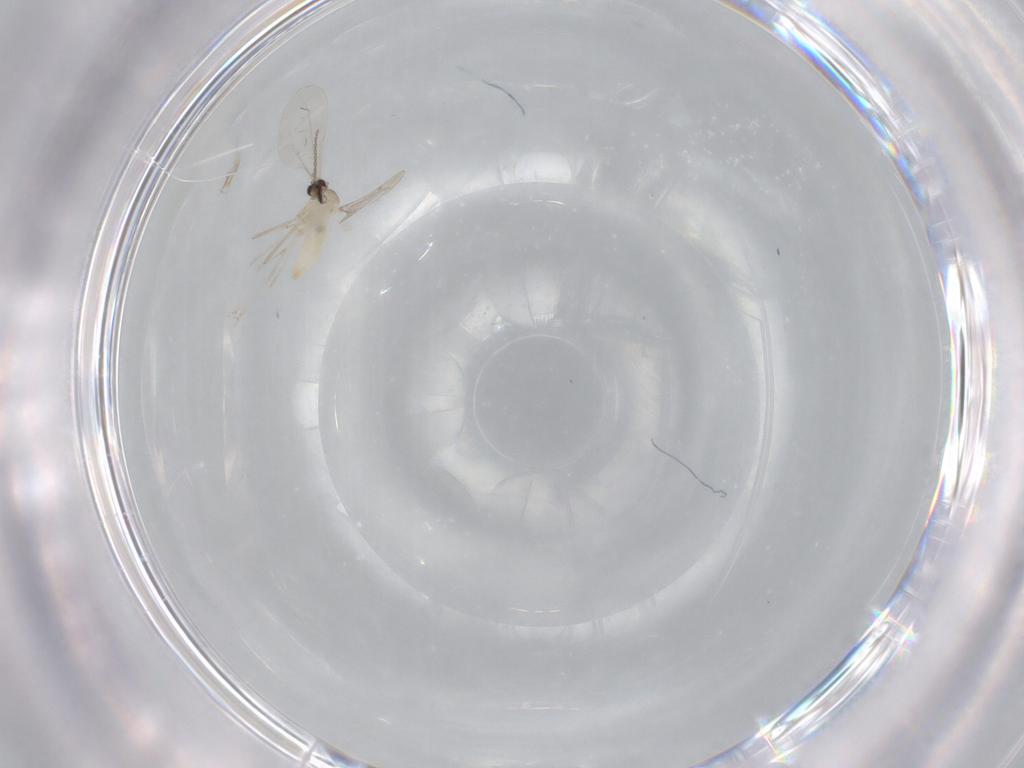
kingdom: Animalia
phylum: Arthropoda
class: Insecta
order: Diptera
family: Cecidomyiidae
